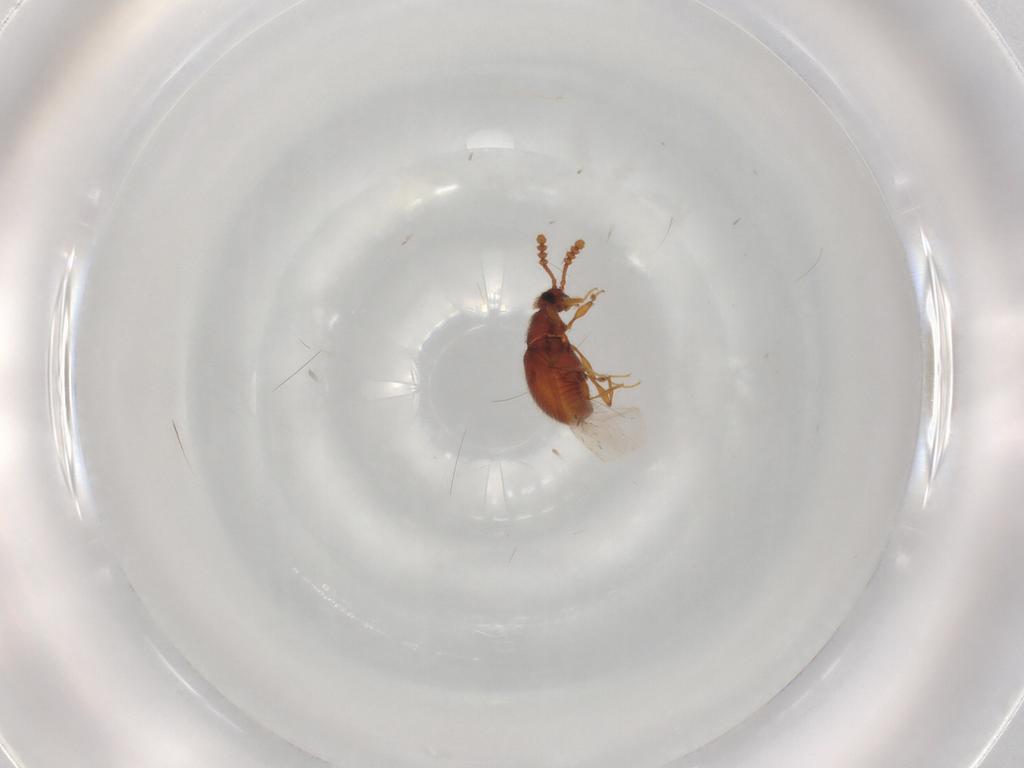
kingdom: Animalia
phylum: Arthropoda
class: Insecta
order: Coleoptera
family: Staphylinidae
